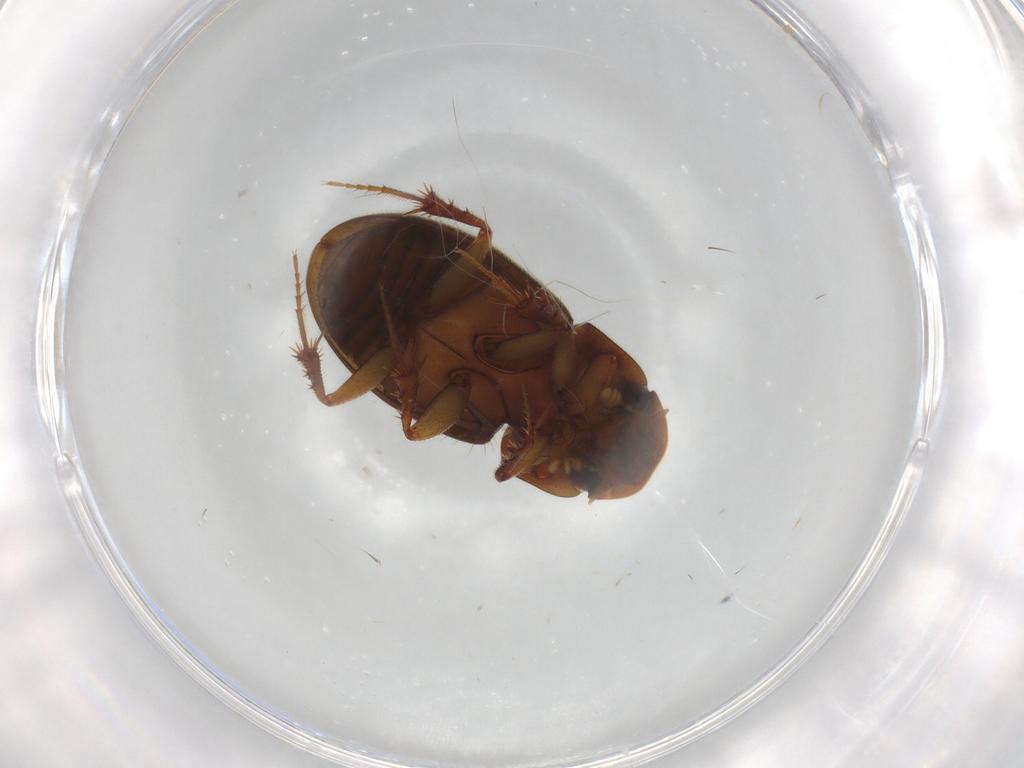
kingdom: Animalia
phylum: Arthropoda
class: Insecta
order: Coleoptera
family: Scarabaeidae
